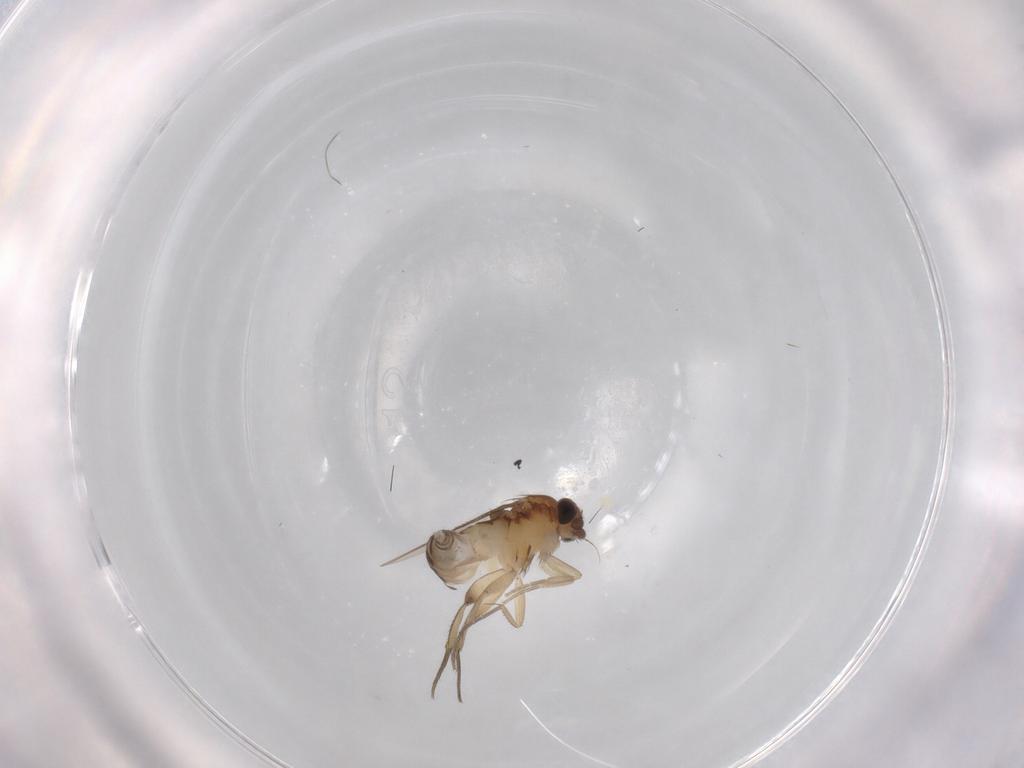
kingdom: Animalia
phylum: Arthropoda
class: Insecta
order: Diptera
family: Phoridae
